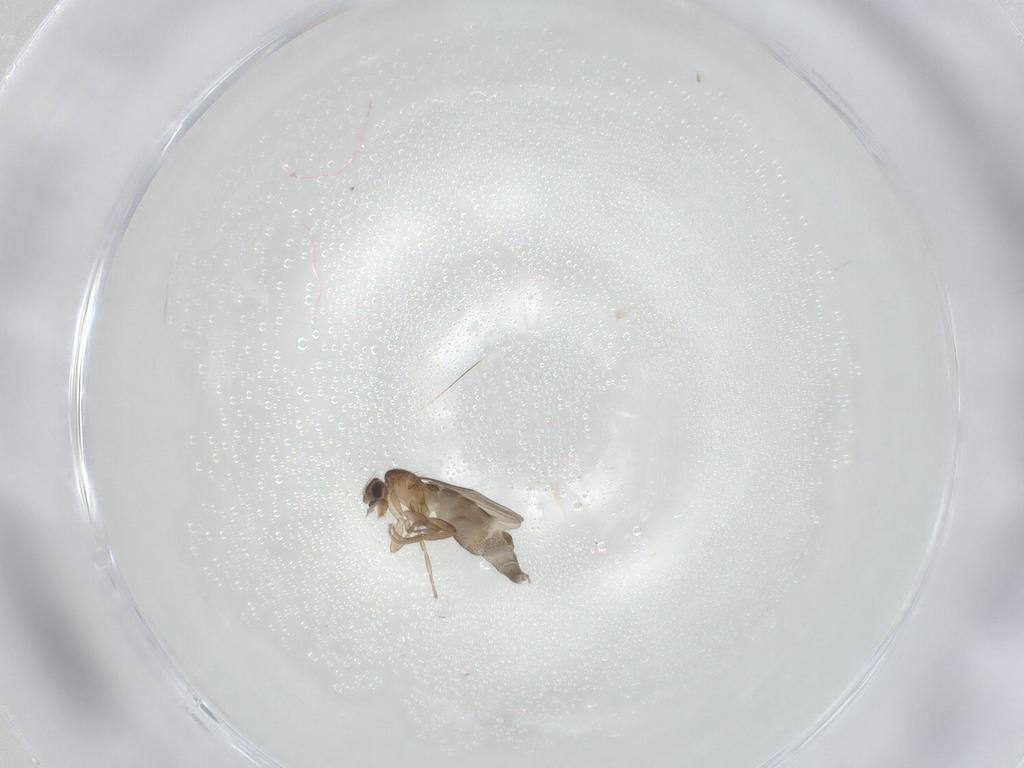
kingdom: Animalia
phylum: Arthropoda
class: Insecta
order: Diptera
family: Phoridae
